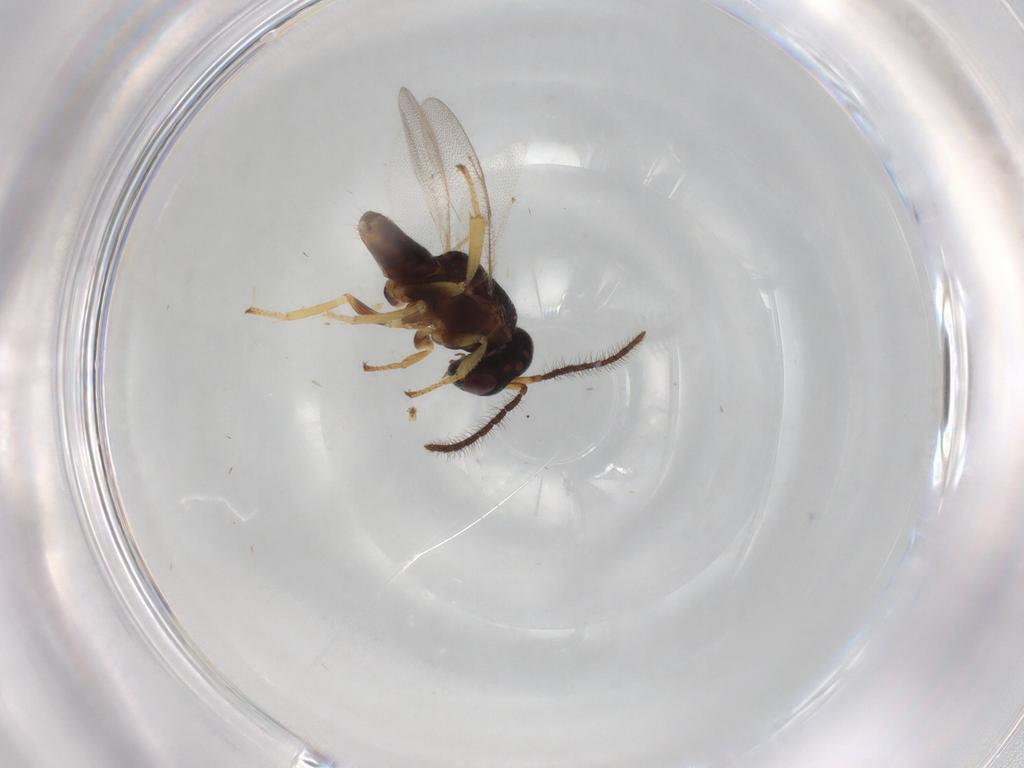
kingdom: Animalia
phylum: Arthropoda
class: Insecta
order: Hymenoptera
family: Tanaostigmatidae
